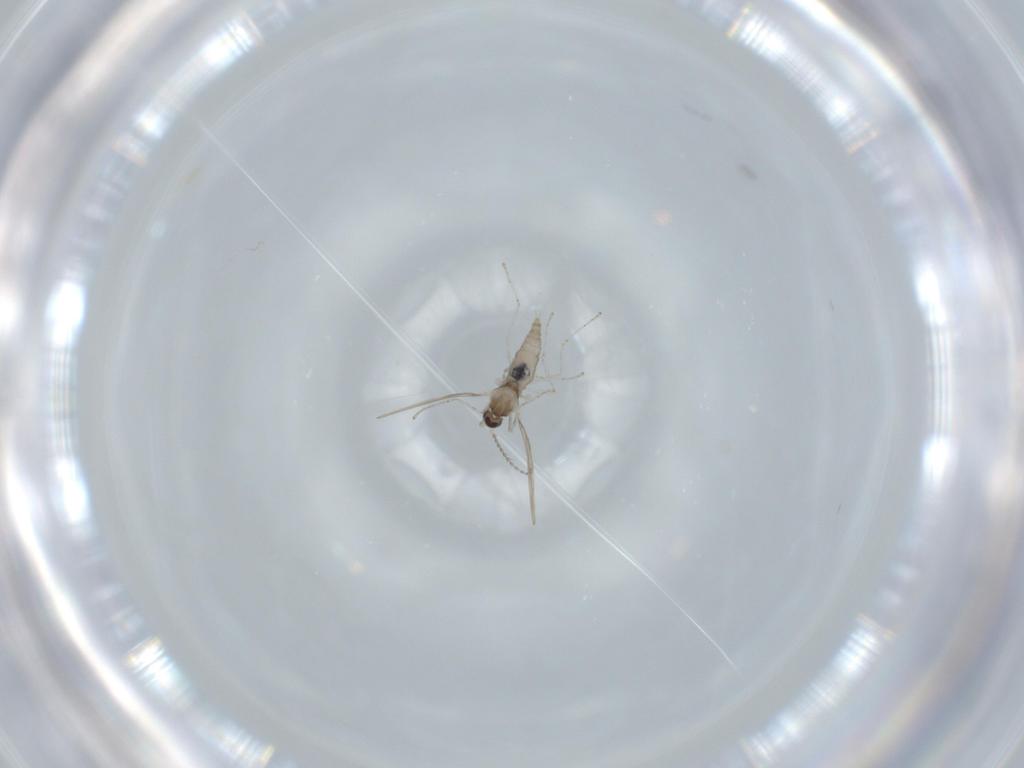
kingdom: Animalia
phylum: Arthropoda
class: Insecta
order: Diptera
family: Cecidomyiidae
